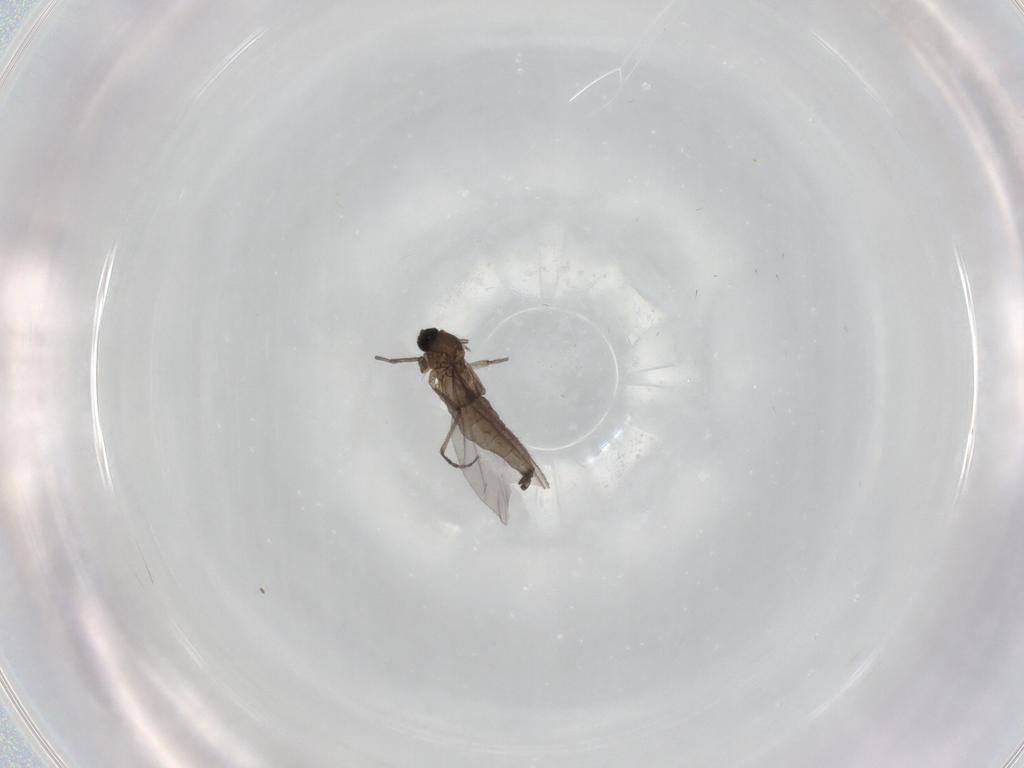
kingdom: Animalia
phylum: Arthropoda
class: Insecta
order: Diptera
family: Sciaridae
